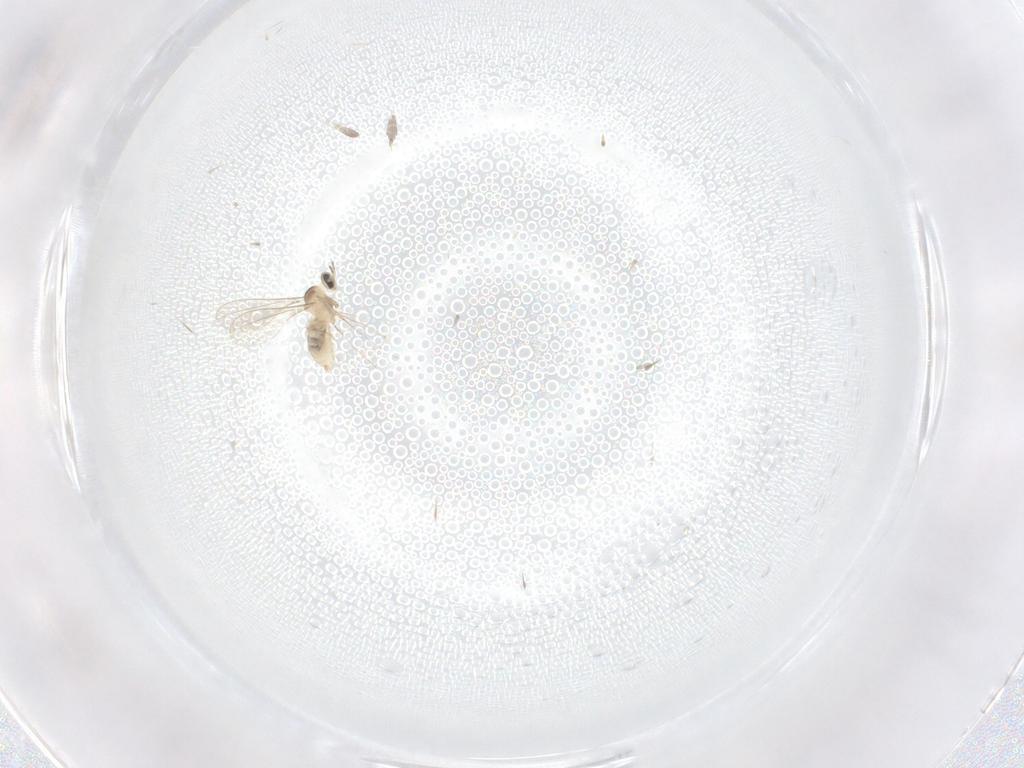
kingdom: Animalia
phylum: Arthropoda
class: Insecta
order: Diptera
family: Cecidomyiidae
